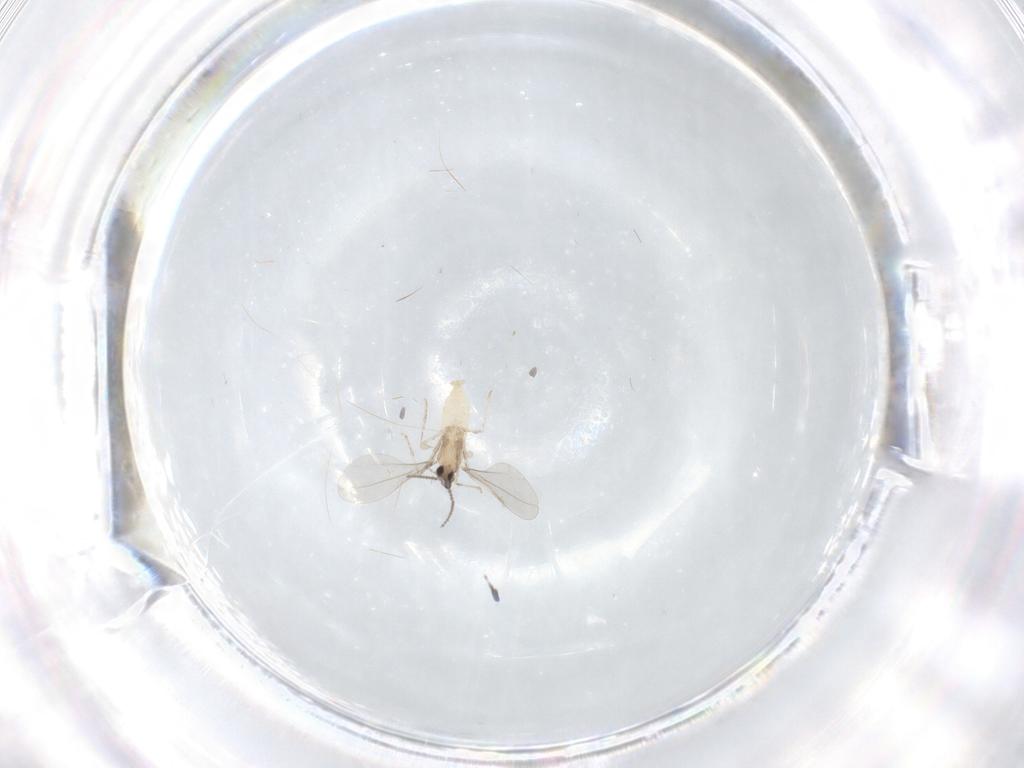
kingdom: Animalia
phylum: Arthropoda
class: Insecta
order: Diptera
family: Cecidomyiidae
